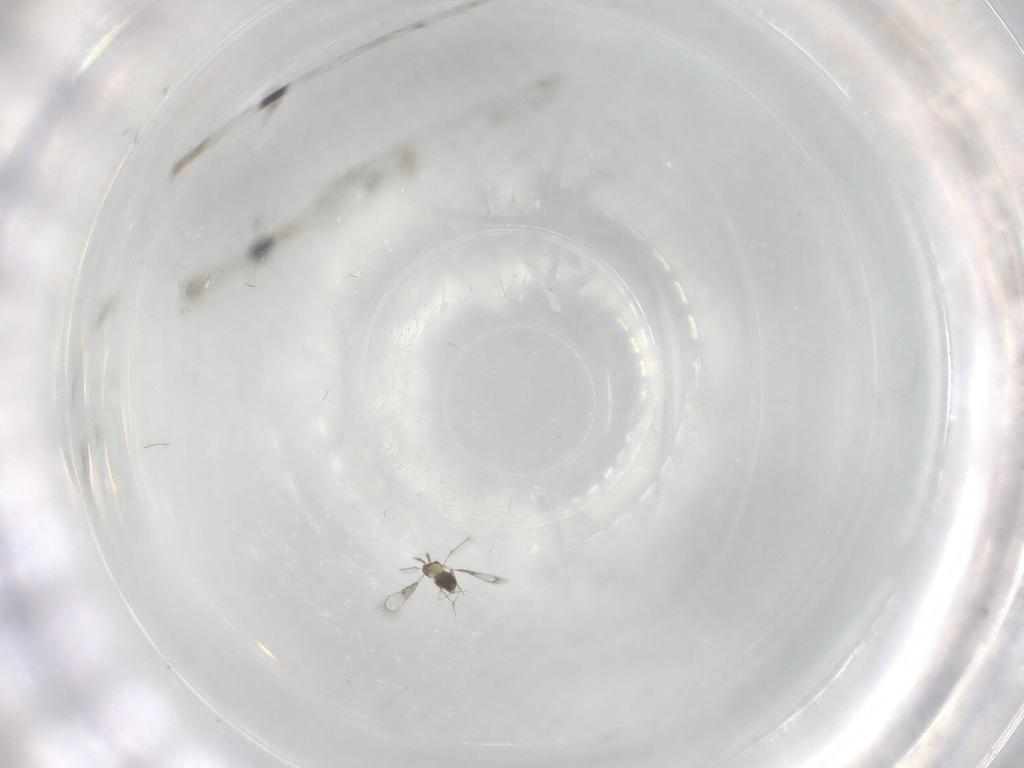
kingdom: Animalia
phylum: Arthropoda
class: Insecta
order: Hymenoptera
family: Trichogrammatidae
